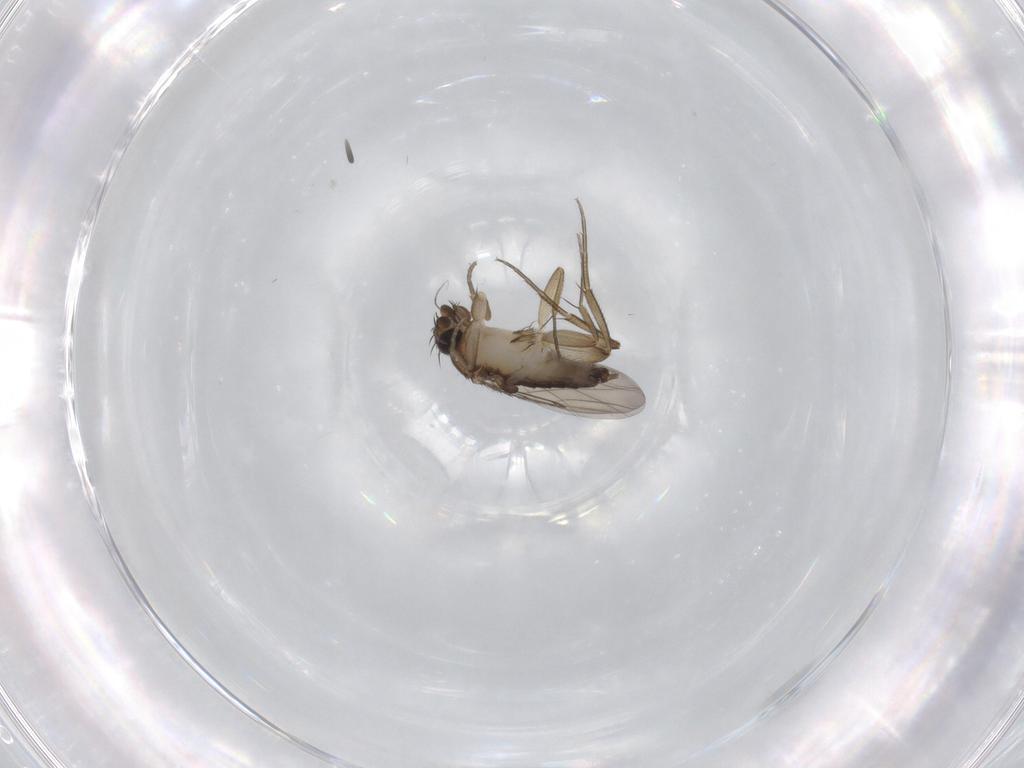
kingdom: Animalia
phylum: Arthropoda
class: Insecta
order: Diptera
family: Phoridae
